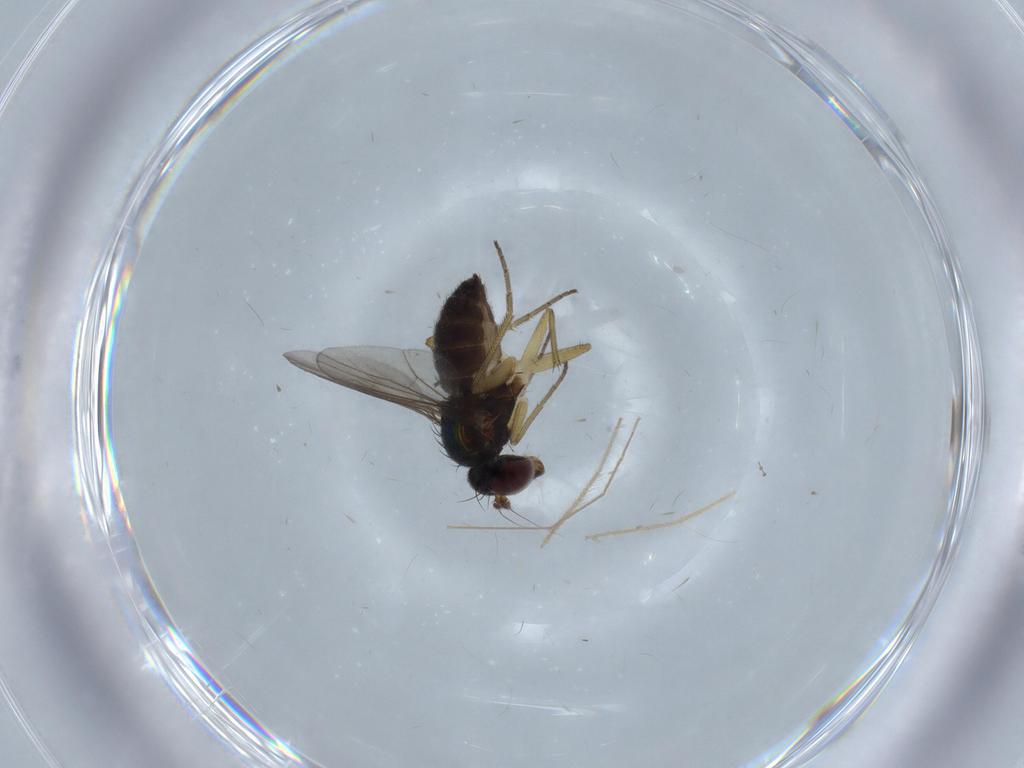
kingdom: Animalia
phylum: Arthropoda
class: Insecta
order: Diptera
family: Dolichopodidae
